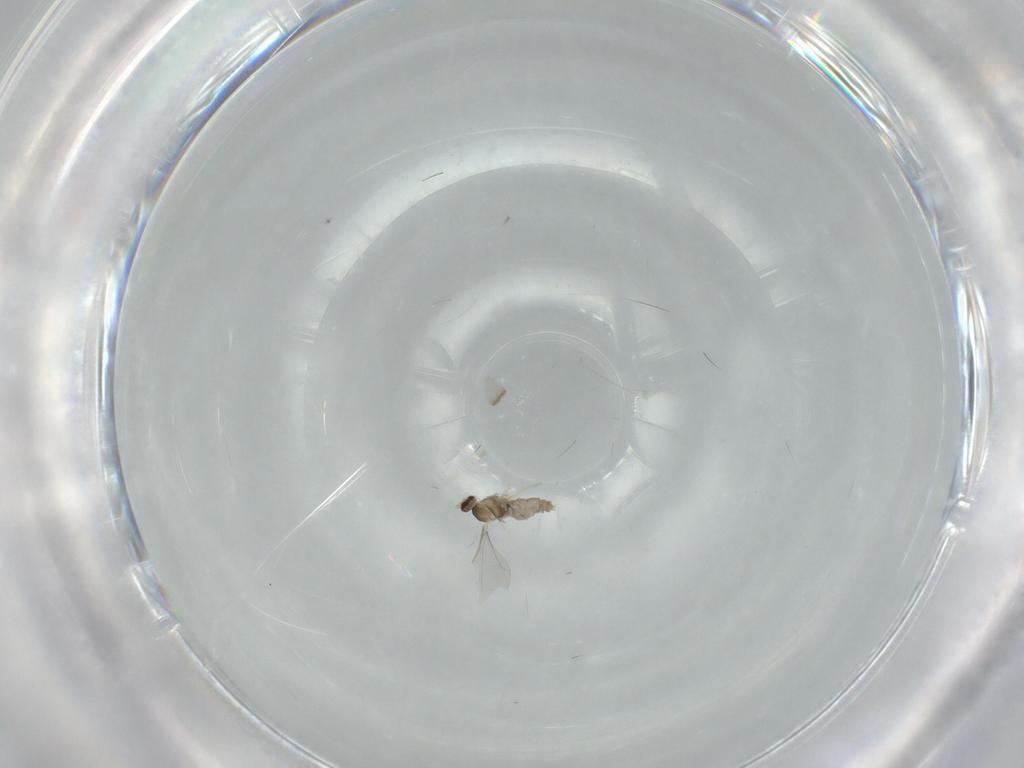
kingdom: Animalia
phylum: Arthropoda
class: Insecta
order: Diptera
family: Cecidomyiidae
